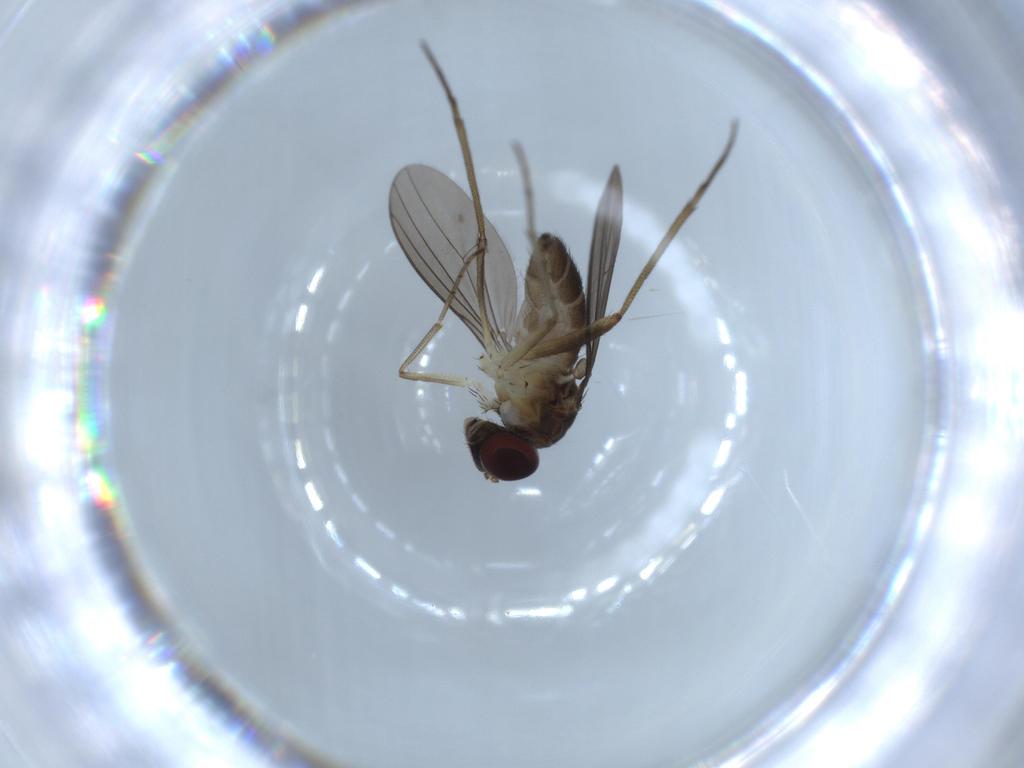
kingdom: Animalia
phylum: Arthropoda
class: Insecta
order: Diptera
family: Dolichopodidae
